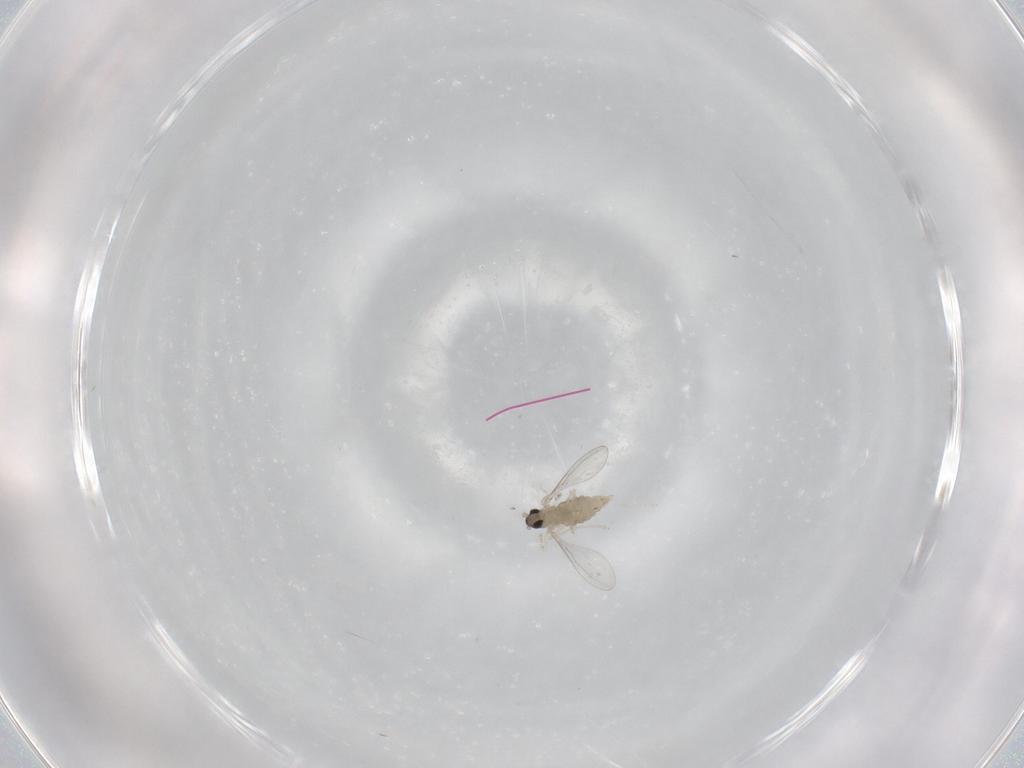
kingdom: Animalia
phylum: Arthropoda
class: Insecta
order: Diptera
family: Cecidomyiidae
